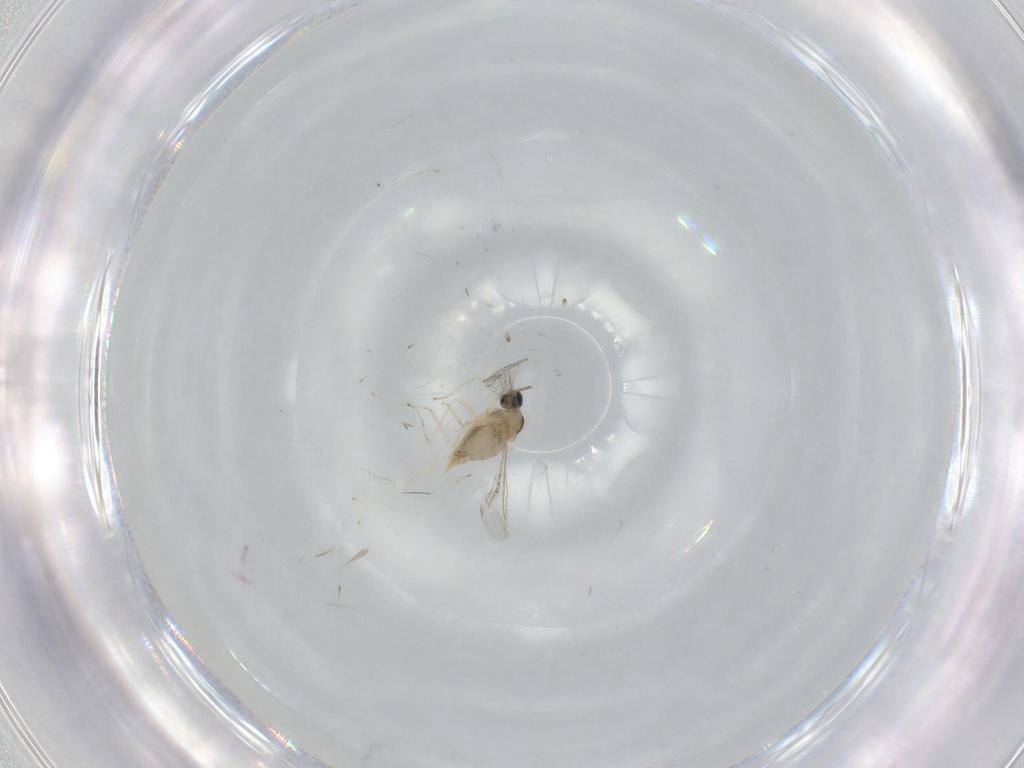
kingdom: Animalia
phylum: Arthropoda
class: Insecta
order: Diptera
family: Cecidomyiidae
